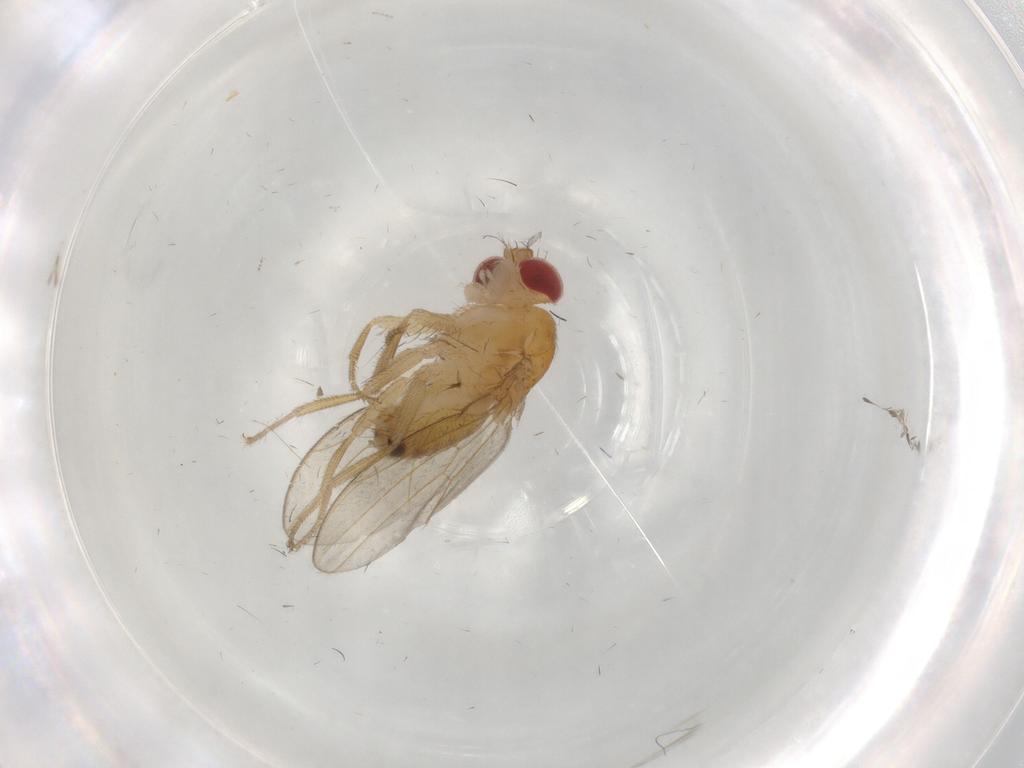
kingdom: Animalia
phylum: Arthropoda
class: Insecta
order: Diptera
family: Drosophilidae
